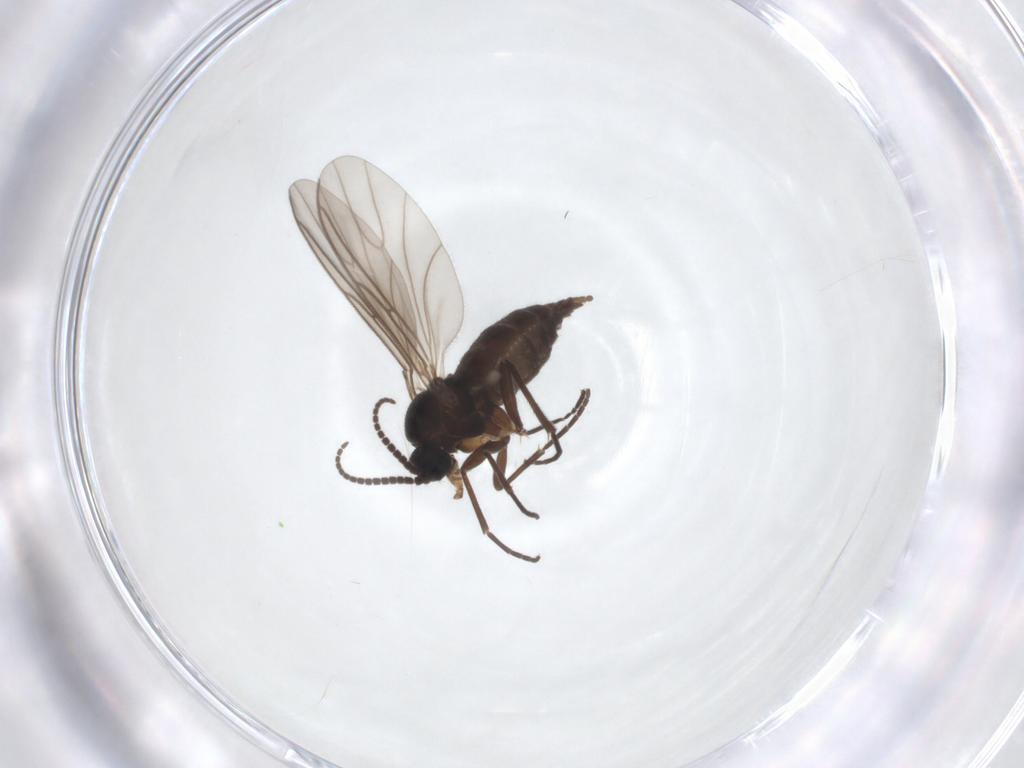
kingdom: Animalia
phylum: Arthropoda
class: Insecta
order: Diptera
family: Sciaridae
